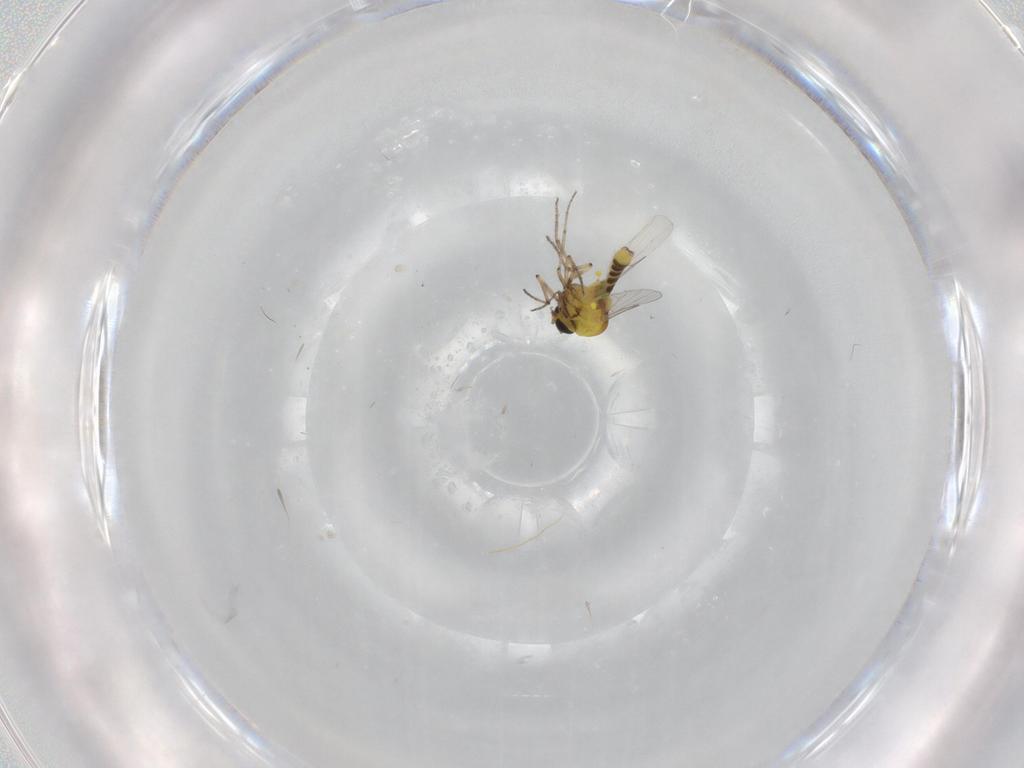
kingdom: Animalia
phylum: Arthropoda
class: Insecta
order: Diptera
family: Ceratopogonidae
